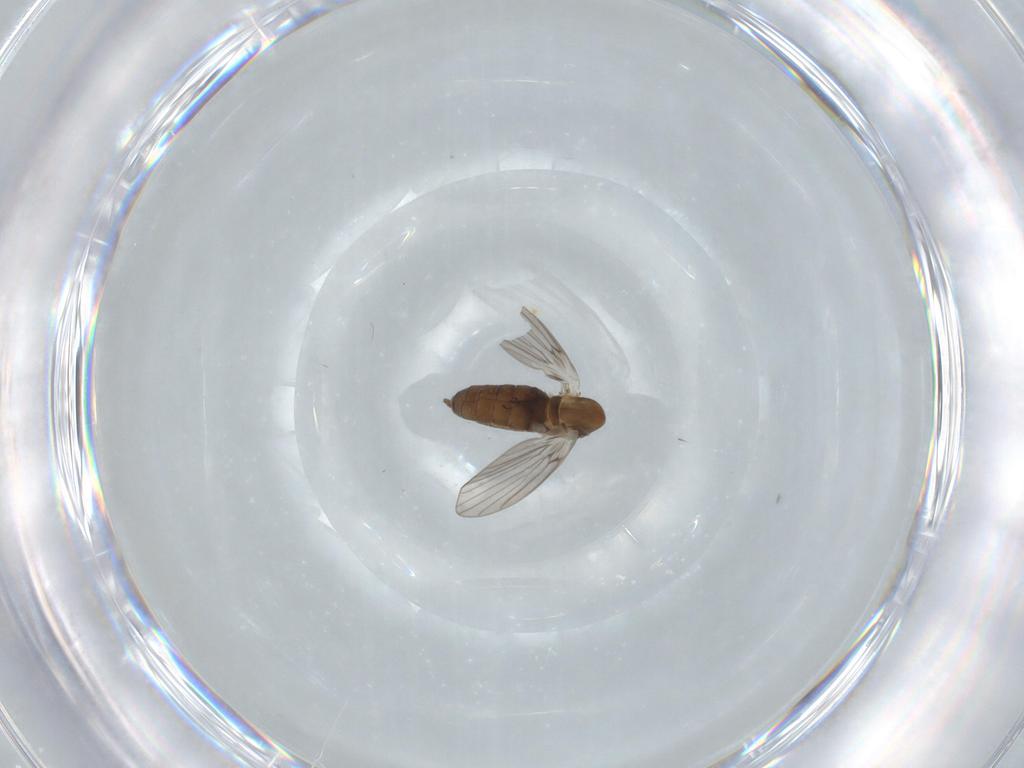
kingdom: Animalia
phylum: Arthropoda
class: Insecta
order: Diptera
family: Psychodidae
